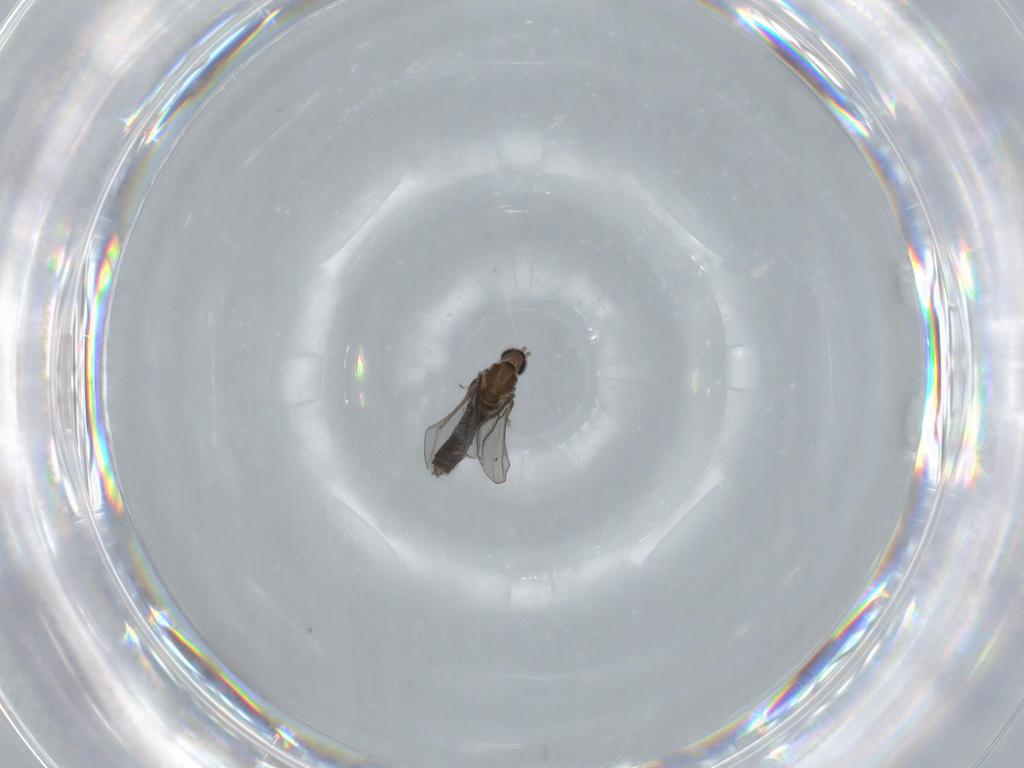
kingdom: Animalia
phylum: Arthropoda
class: Insecta
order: Diptera
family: Cecidomyiidae
